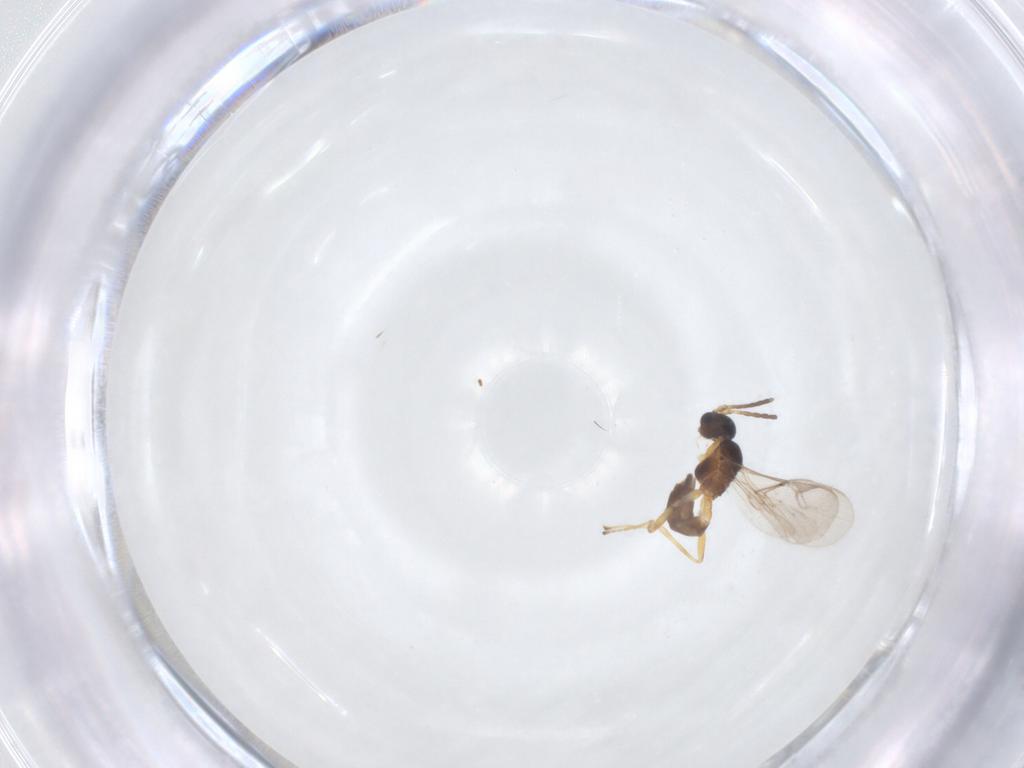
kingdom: Animalia
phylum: Arthropoda
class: Insecta
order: Hymenoptera
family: Braconidae
